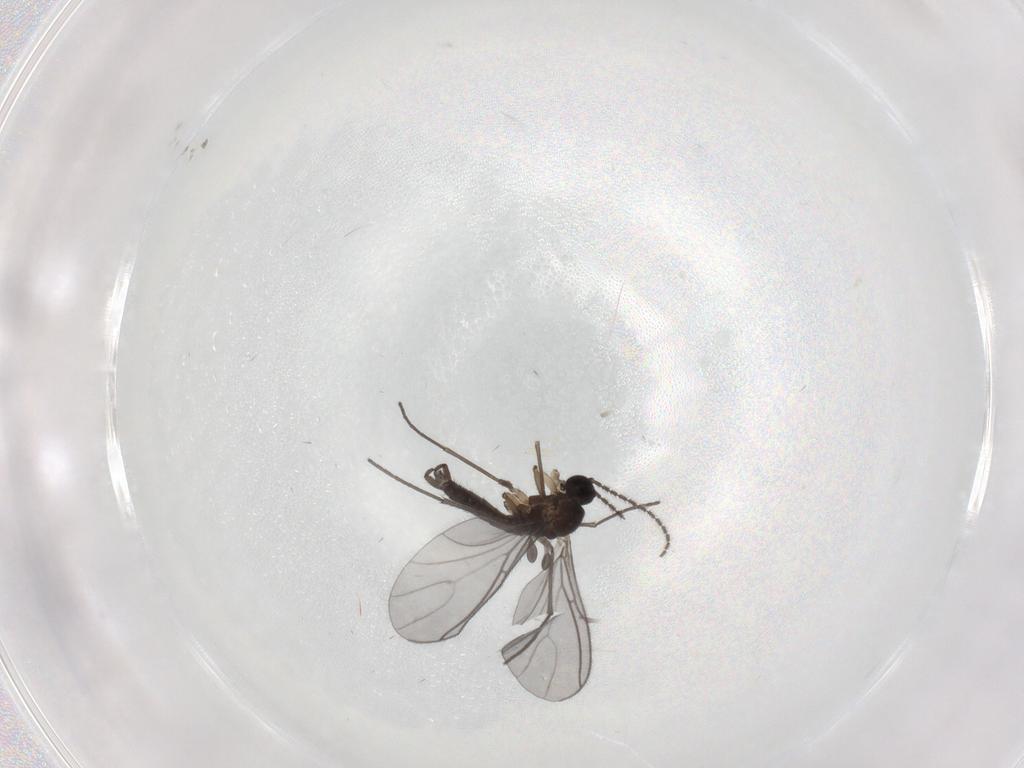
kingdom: Animalia
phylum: Arthropoda
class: Insecta
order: Diptera
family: Sciaridae
